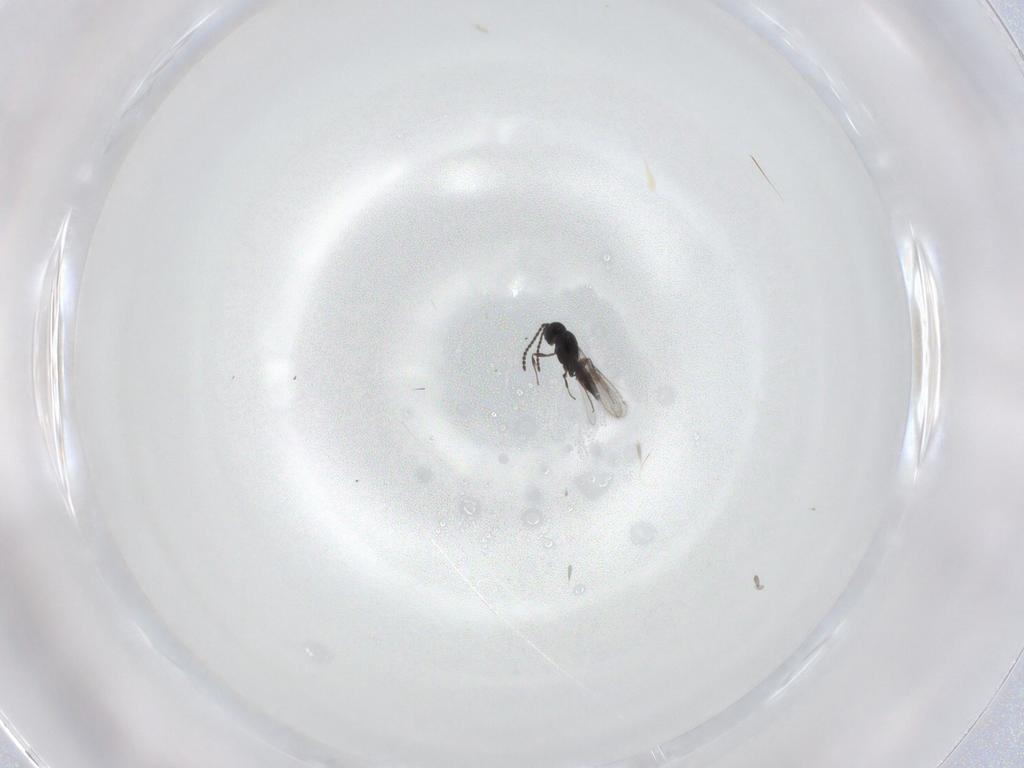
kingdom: Animalia
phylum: Arthropoda
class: Insecta
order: Hymenoptera
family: Scelionidae
